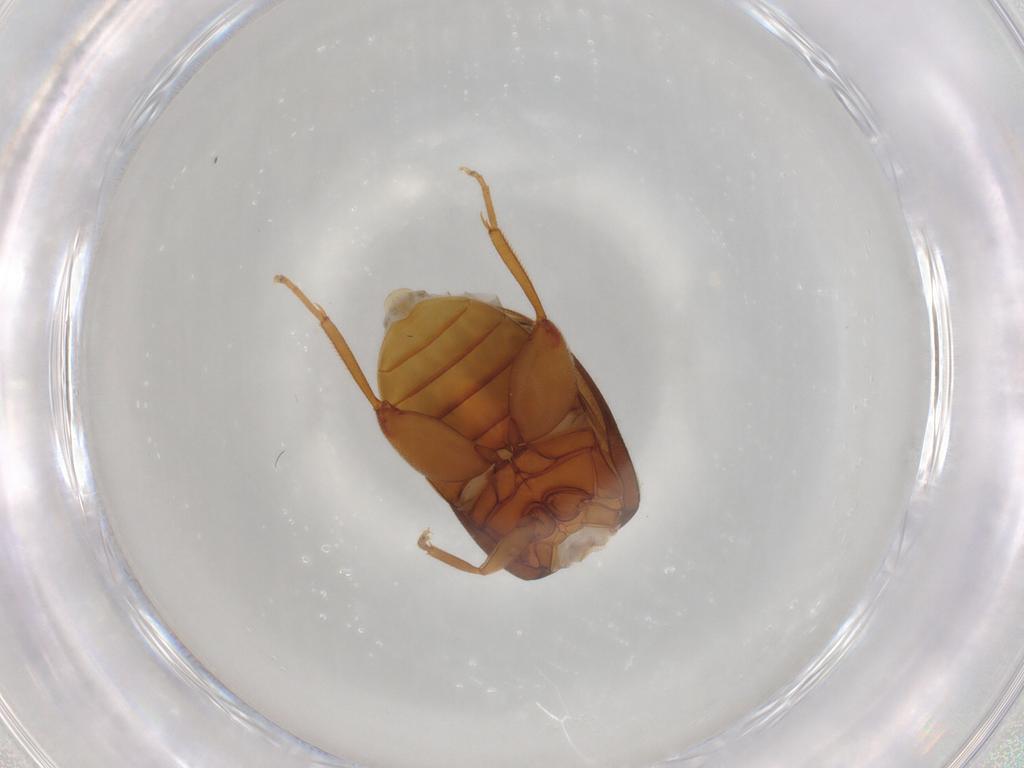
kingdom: Animalia
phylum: Arthropoda
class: Insecta
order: Coleoptera
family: Scirtidae
